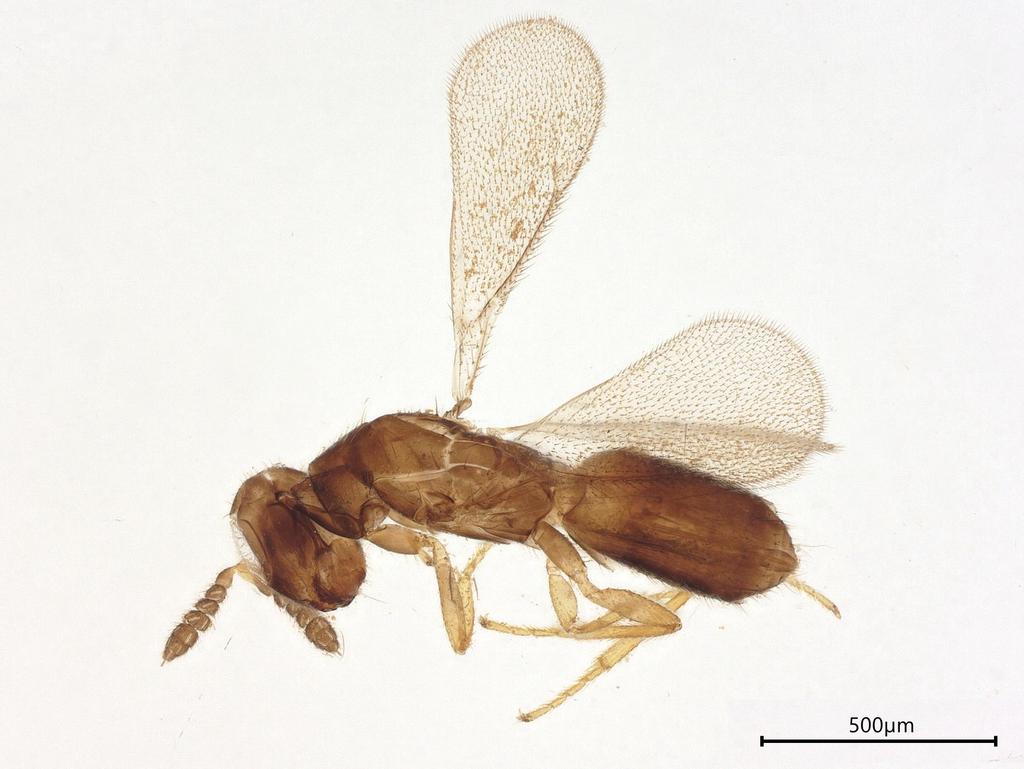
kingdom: Animalia
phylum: Arthropoda
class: Insecta
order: Hymenoptera
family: Eulophidae
